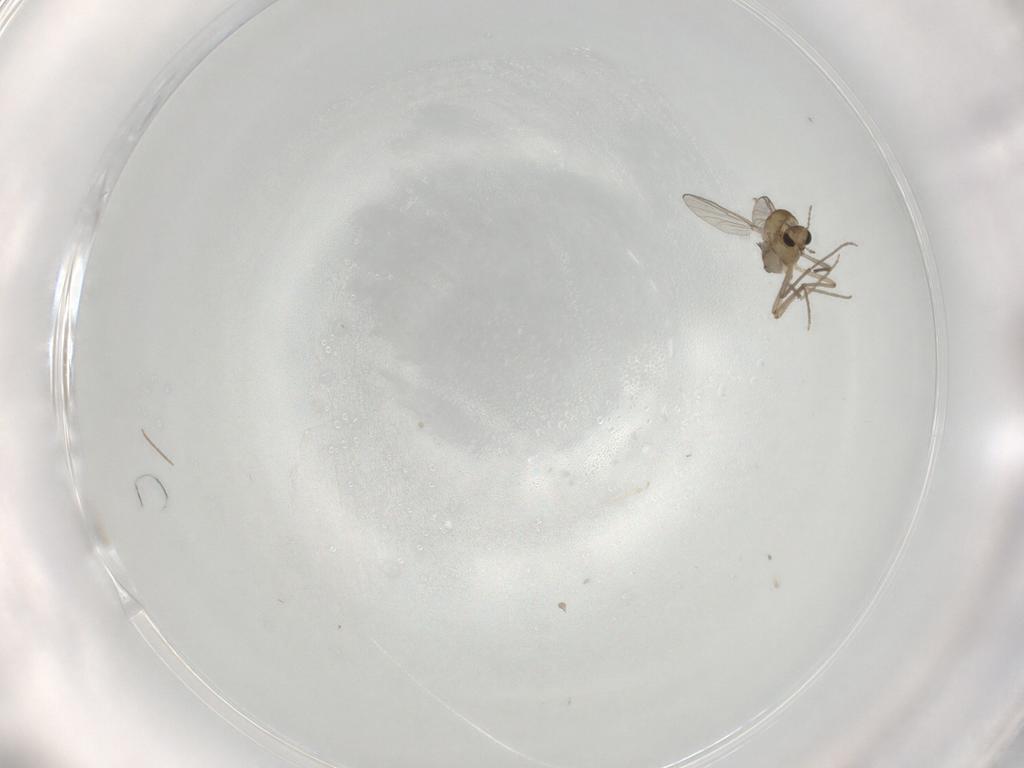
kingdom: Animalia
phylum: Arthropoda
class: Insecta
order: Diptera
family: Chironomidae
